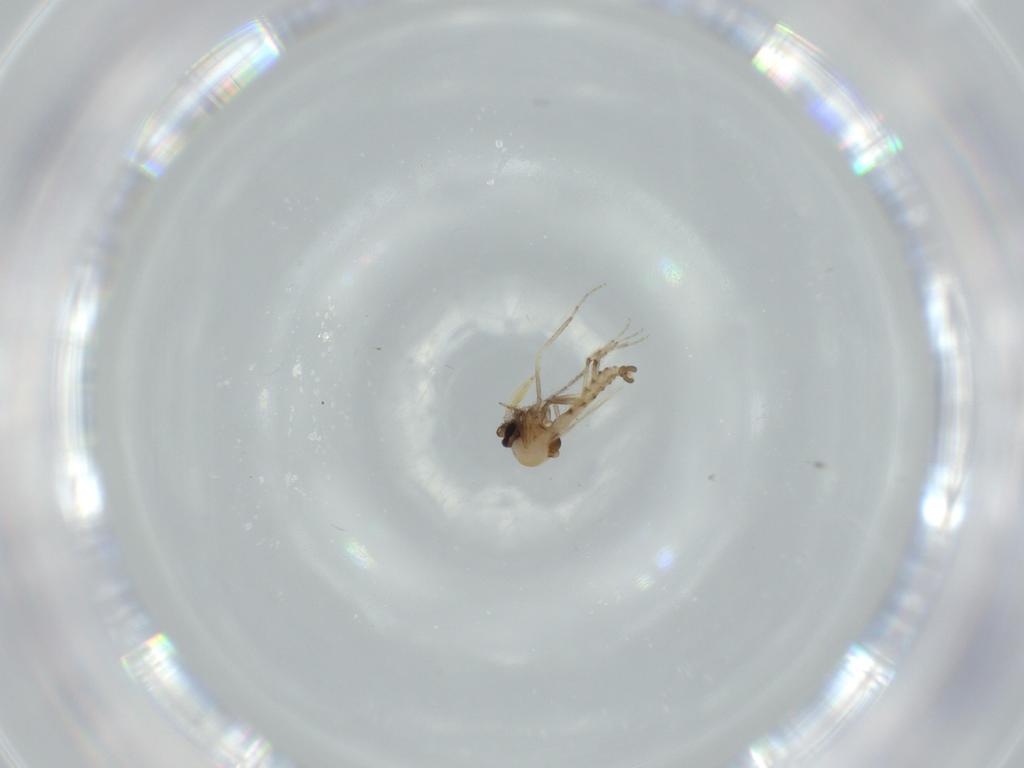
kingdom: Animalia
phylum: Arthropoda
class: Insecta
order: Diptera
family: Ceratopogonidae
